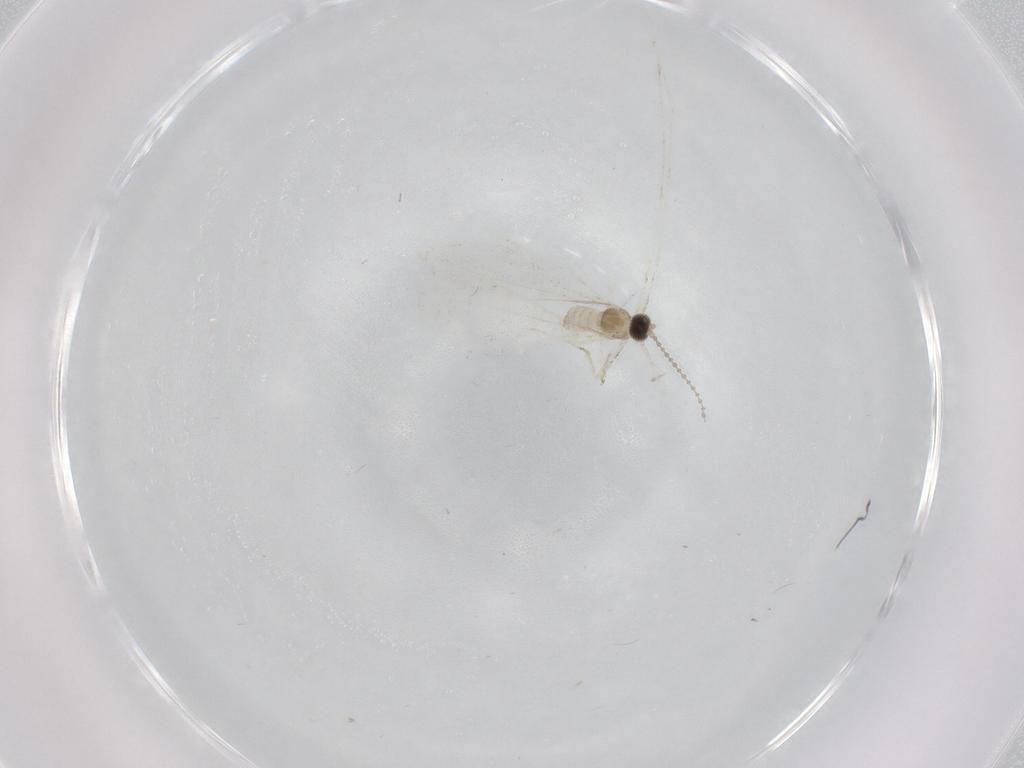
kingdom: Animalia
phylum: Arthropoda
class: Insecta
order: Diptera
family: Cecidomyiidae
